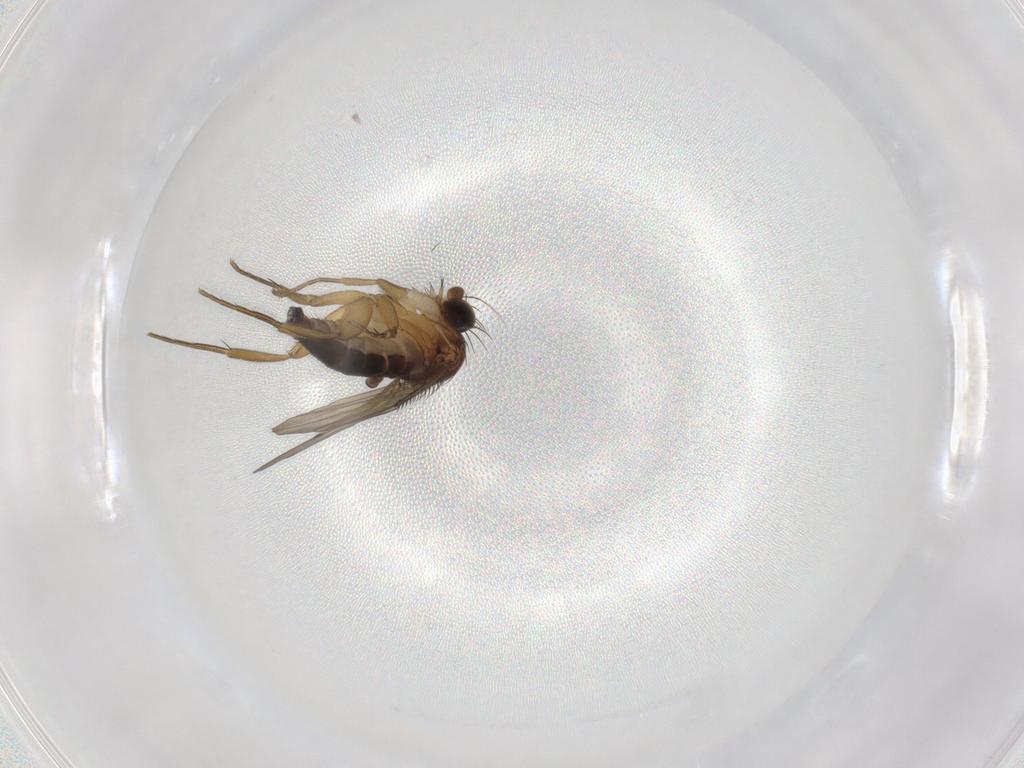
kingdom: Animalia
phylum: Arthropoda
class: Insecta
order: Diptera
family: Phoridae
